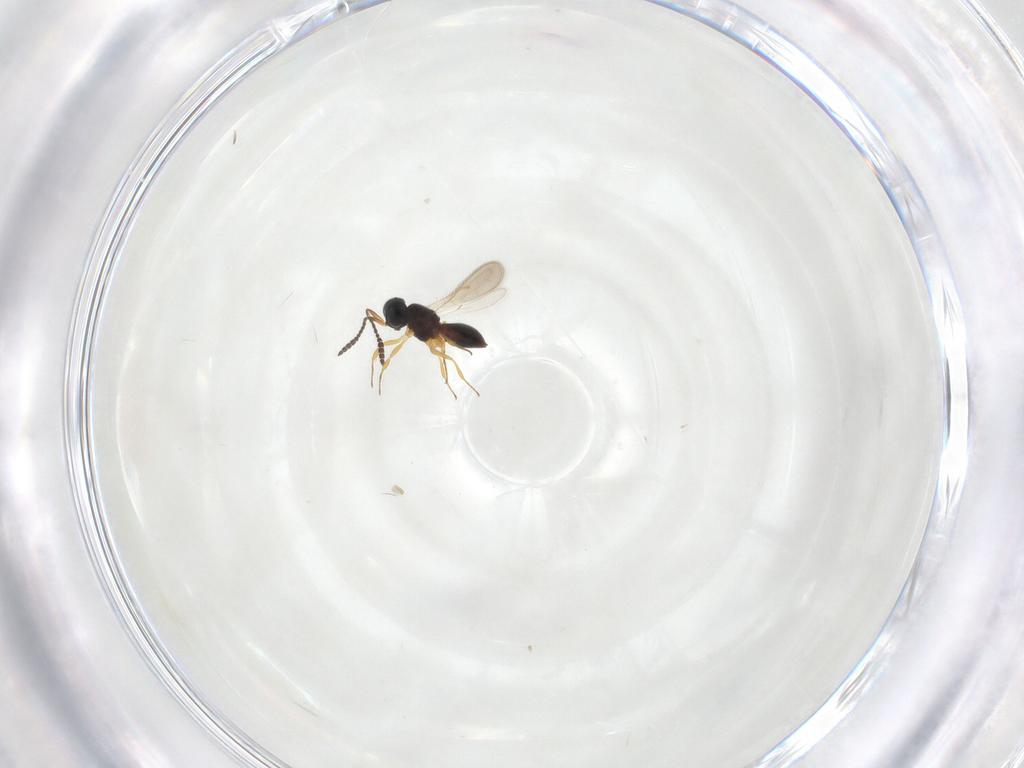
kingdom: Animalia
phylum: Arthropoda
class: Insecta
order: Hymenoptera
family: Scelionidae
